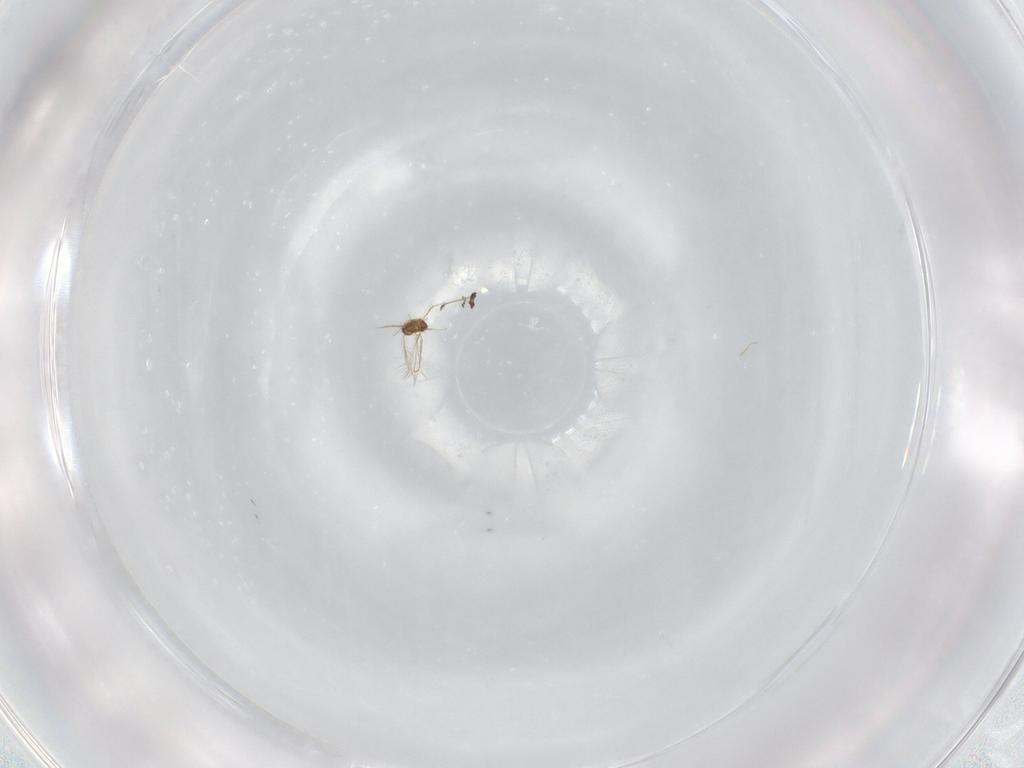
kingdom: Animalia
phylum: Arthropoda
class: Insecta
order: Hymenoptera
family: Mymaridae
